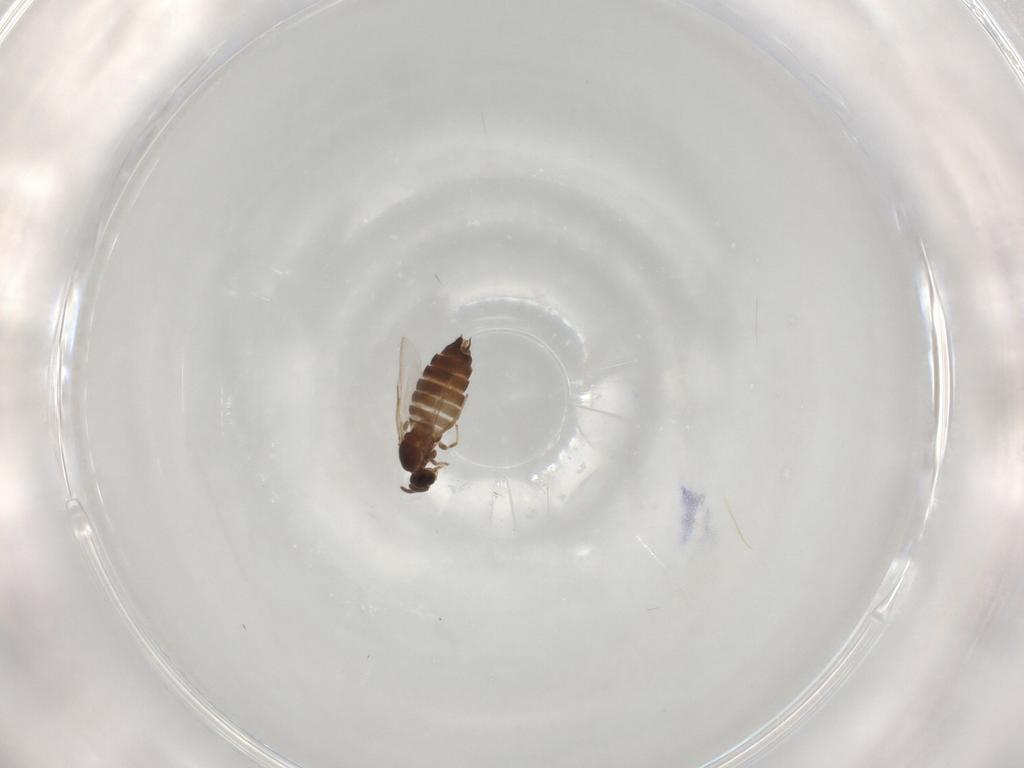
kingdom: Animalia
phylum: Arthropoda
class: Insecta
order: Diptera
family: Scatopsidae
